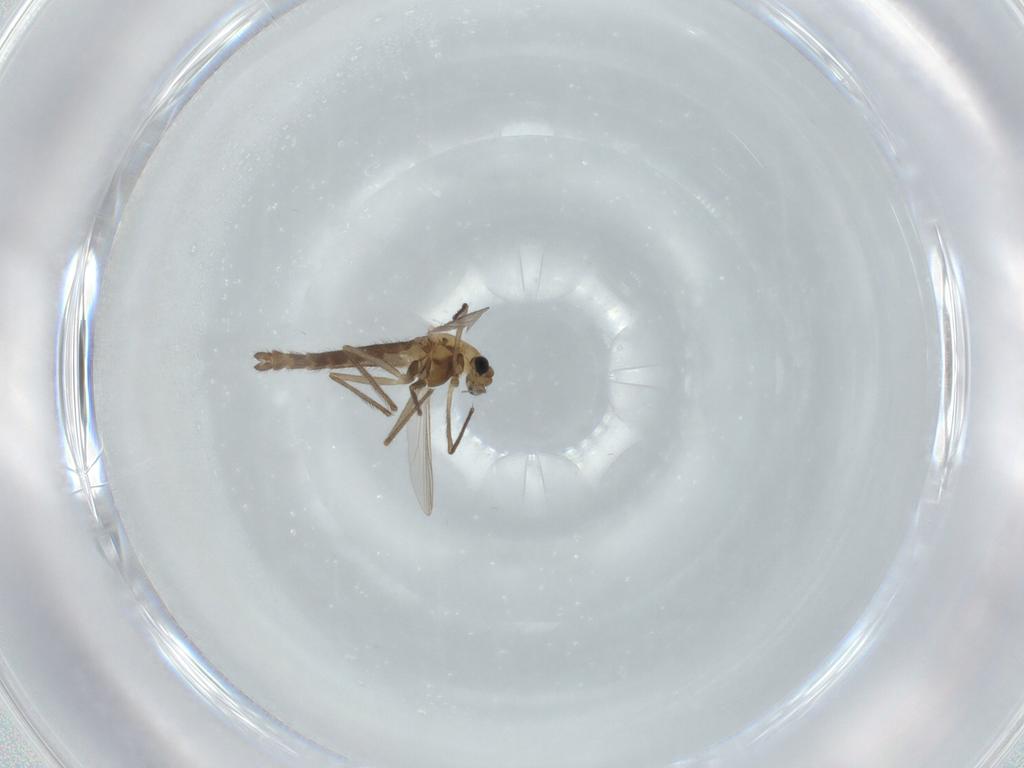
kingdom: Animalia
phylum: Arthropoda
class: Insecta
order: Diptera
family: Chironomidae
